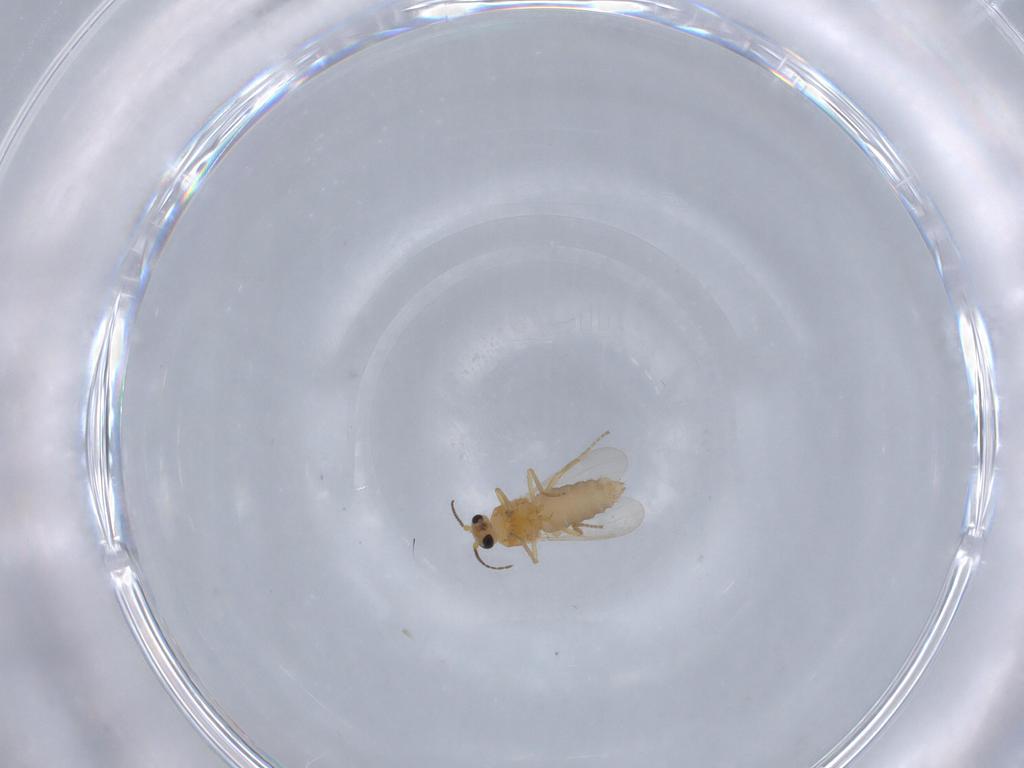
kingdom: Animalia
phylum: Arthropoda
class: Insecta
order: Diptera
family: Ceratopogonidae
